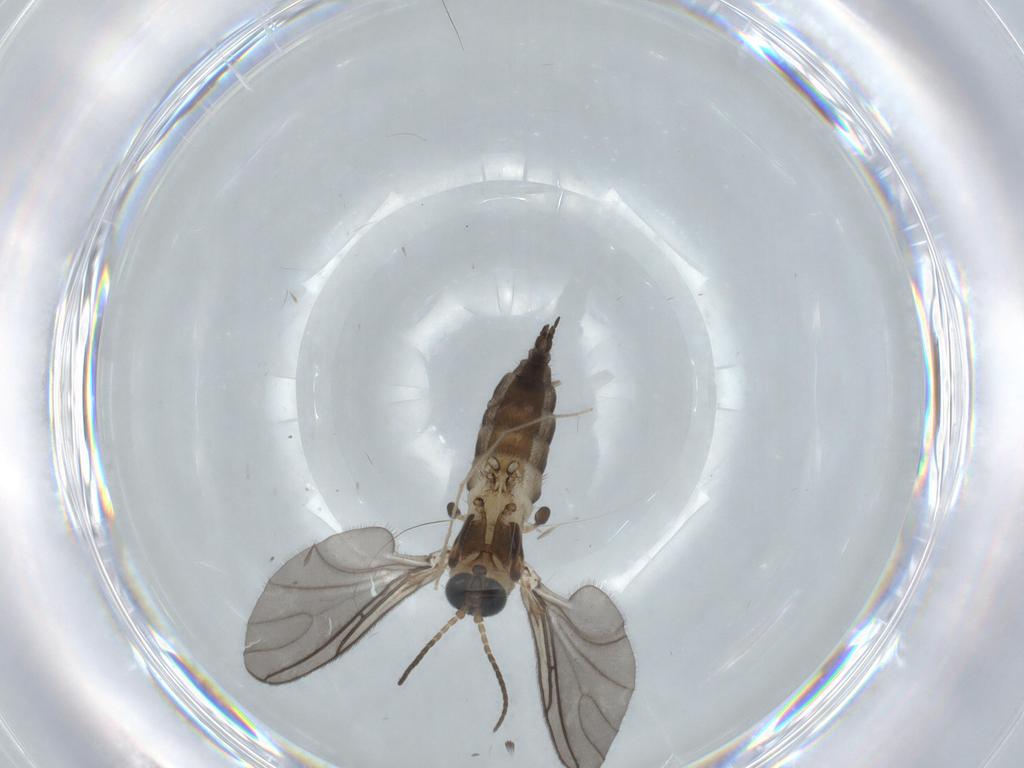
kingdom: Animalia
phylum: Arthropoda
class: Insecta
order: Diptera
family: Sciaridae
